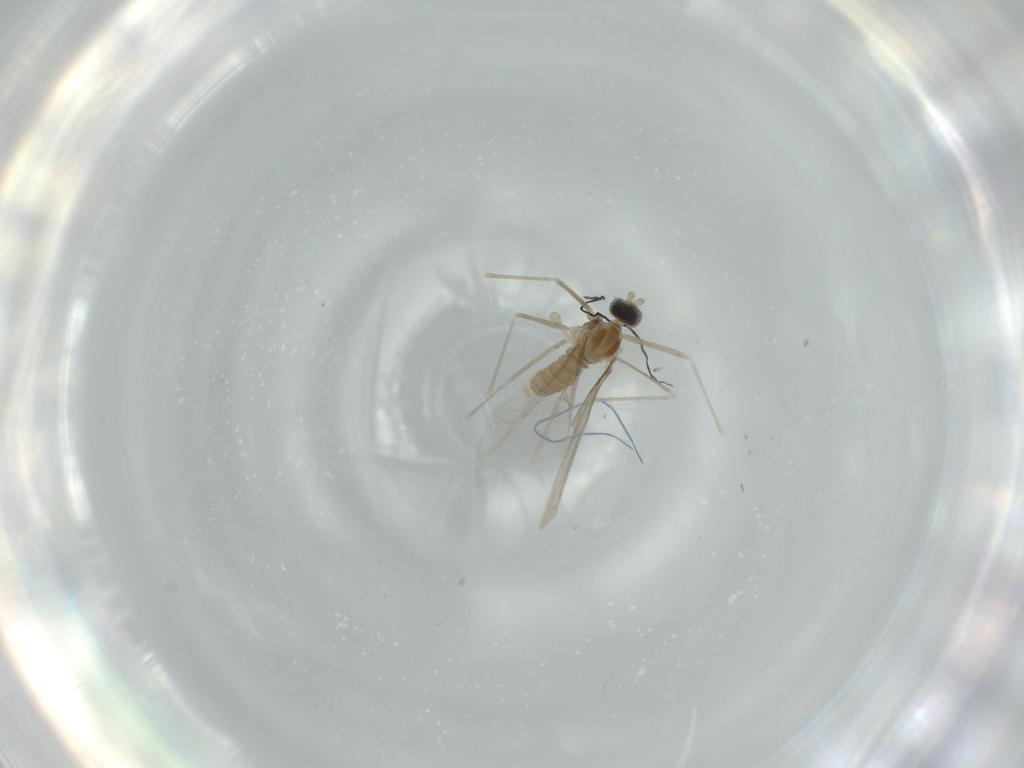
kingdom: Animalia
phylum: Arthropoda
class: Insecta
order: Diptera
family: Cecidomyiidae
